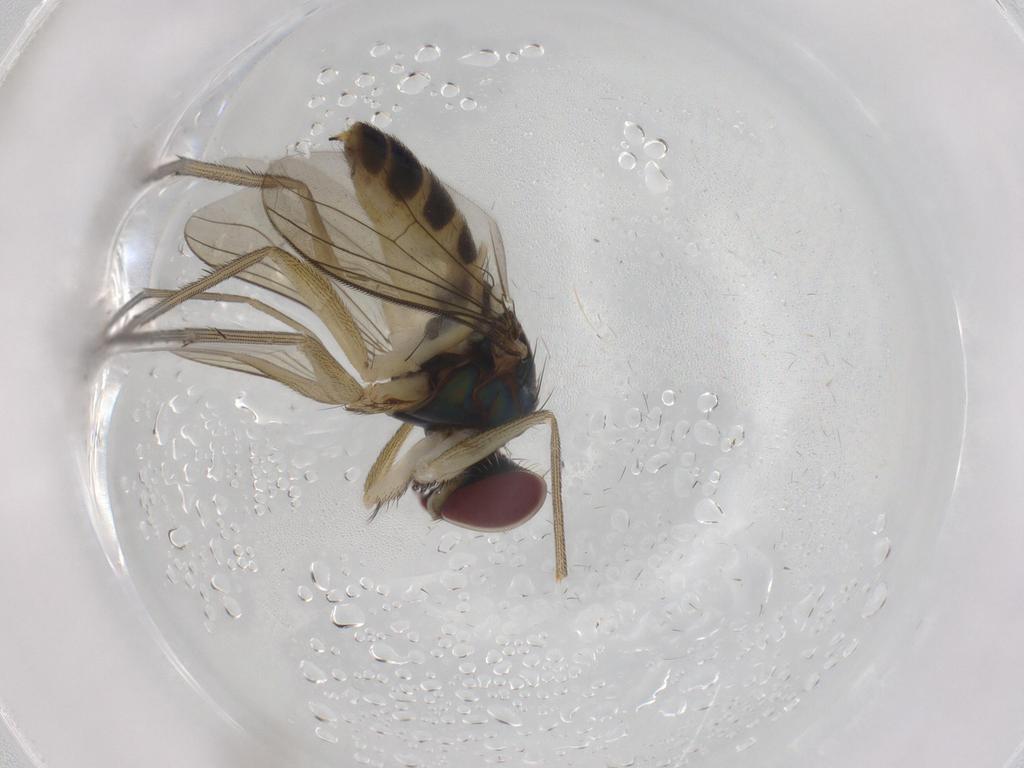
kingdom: Animalia
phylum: Arthropoda
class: Insecta
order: Diptera
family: Dolichopodidae
